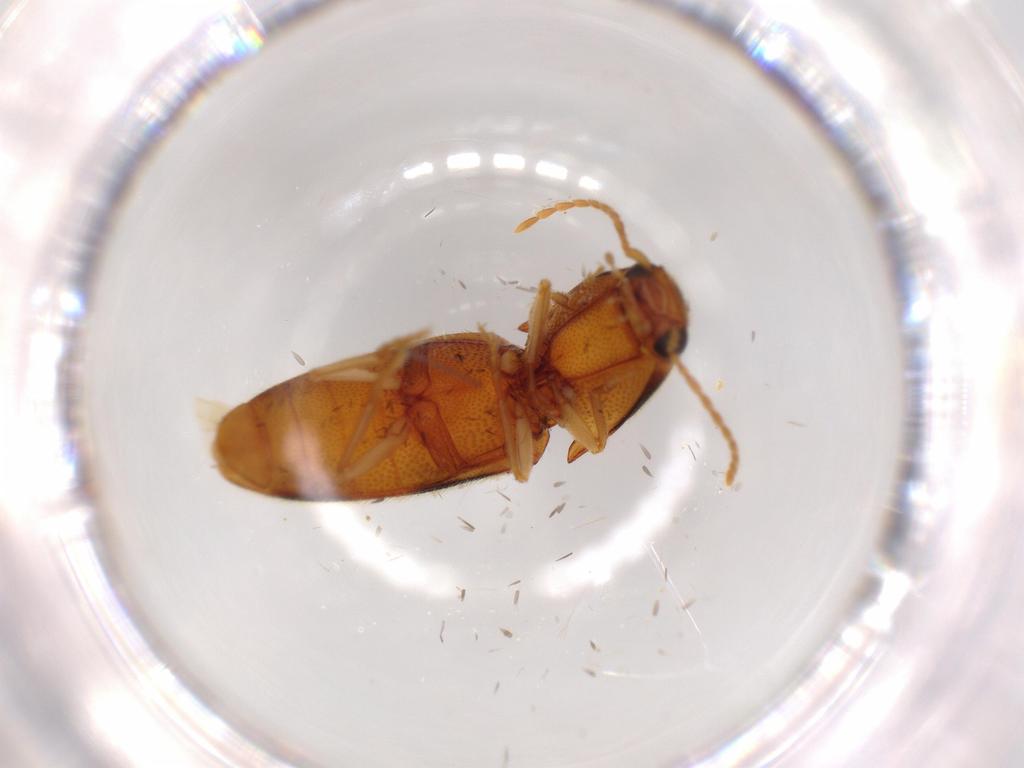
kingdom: Animalia
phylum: Arthropoda
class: Insecta
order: Coleoptera
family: Elateridae
